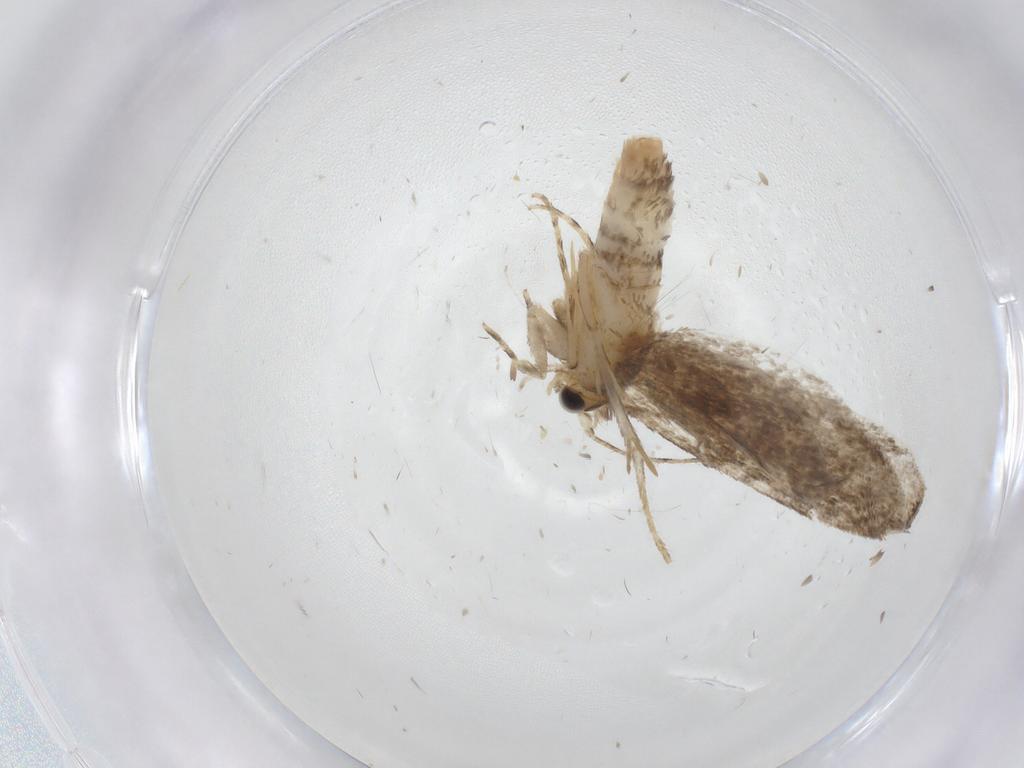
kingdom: Animalia
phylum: Arthropoda
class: Insecta
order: Lepidoptera
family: Tineidae
